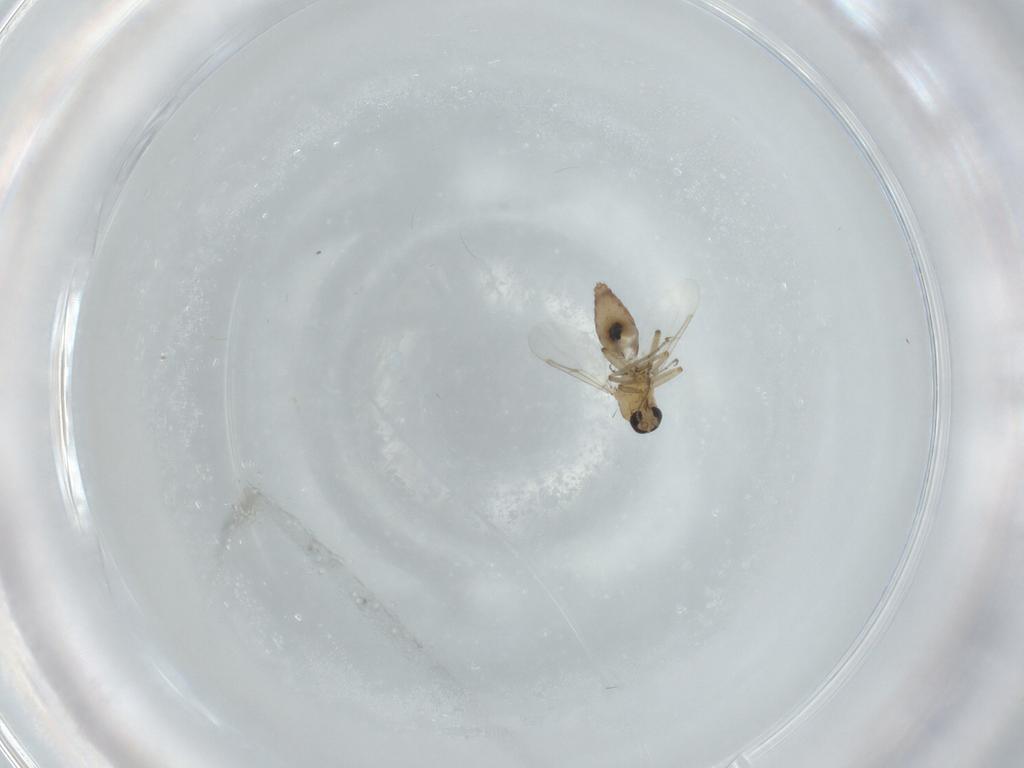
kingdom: Animalia
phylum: Arthropoda
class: Insecta
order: Diptera
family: Ceratopogonidae
